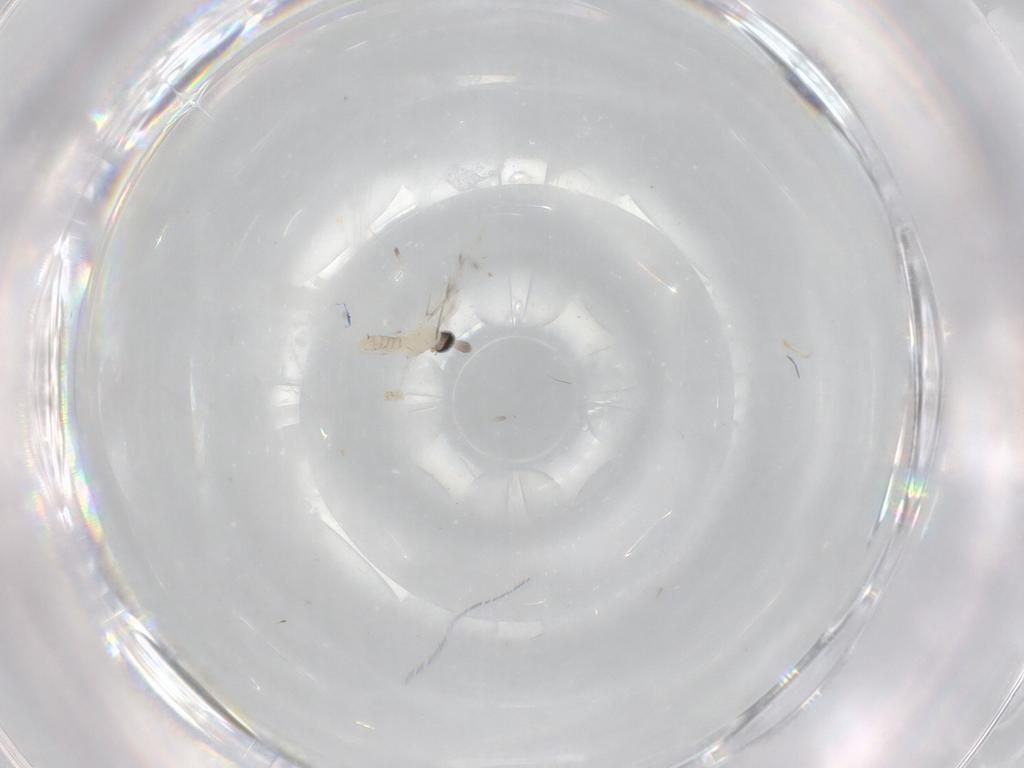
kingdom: Animalia
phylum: Arthropoda
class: Insecta
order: Diptera
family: Cecidomyiidae
